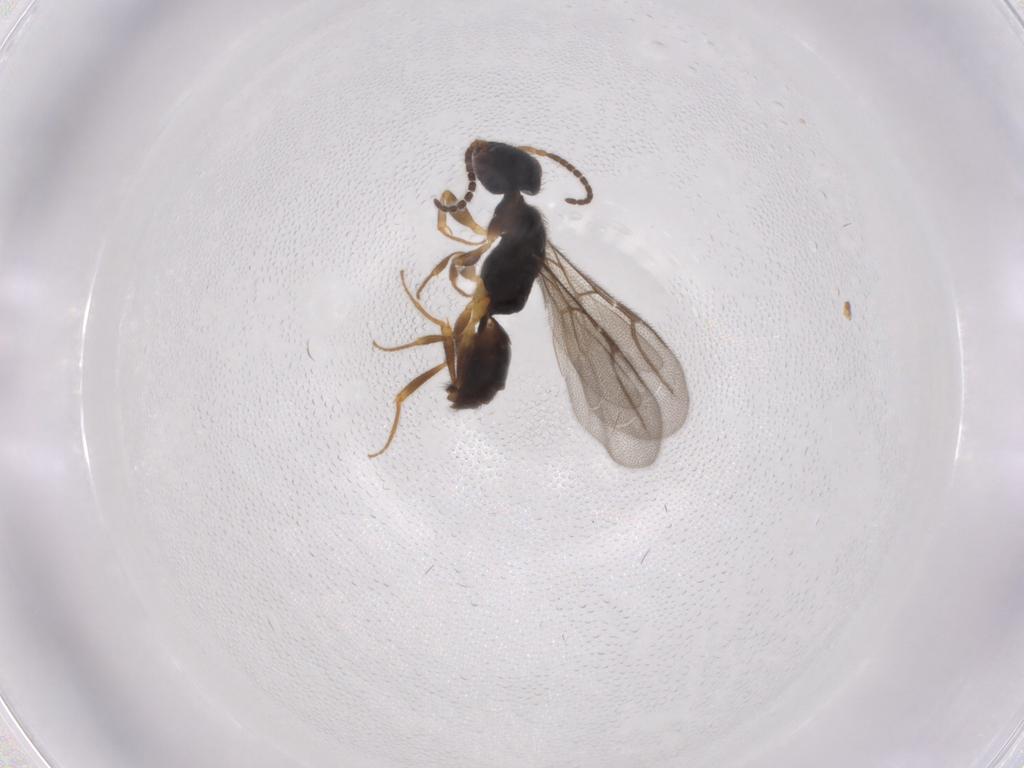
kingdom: Animalia
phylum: Arthropoda
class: Insecta
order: Hymenoptera
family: Bethylidae
